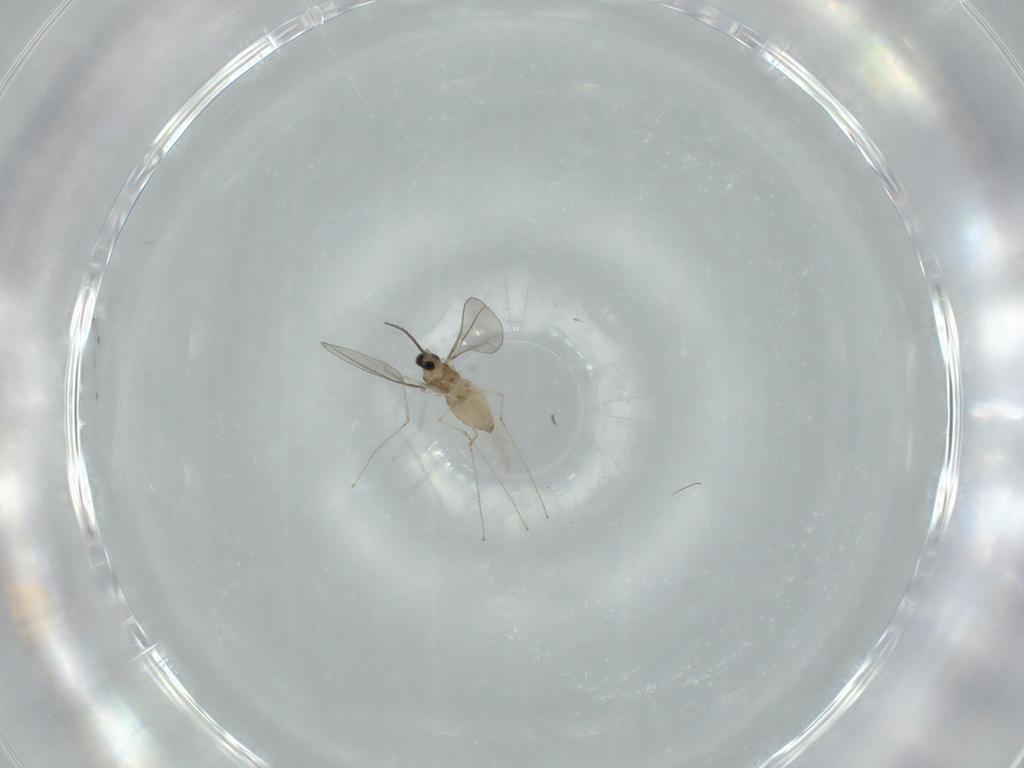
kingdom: Animalia
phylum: Arthropoda
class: Insecta
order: Diptera
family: Cecidomyiidae
